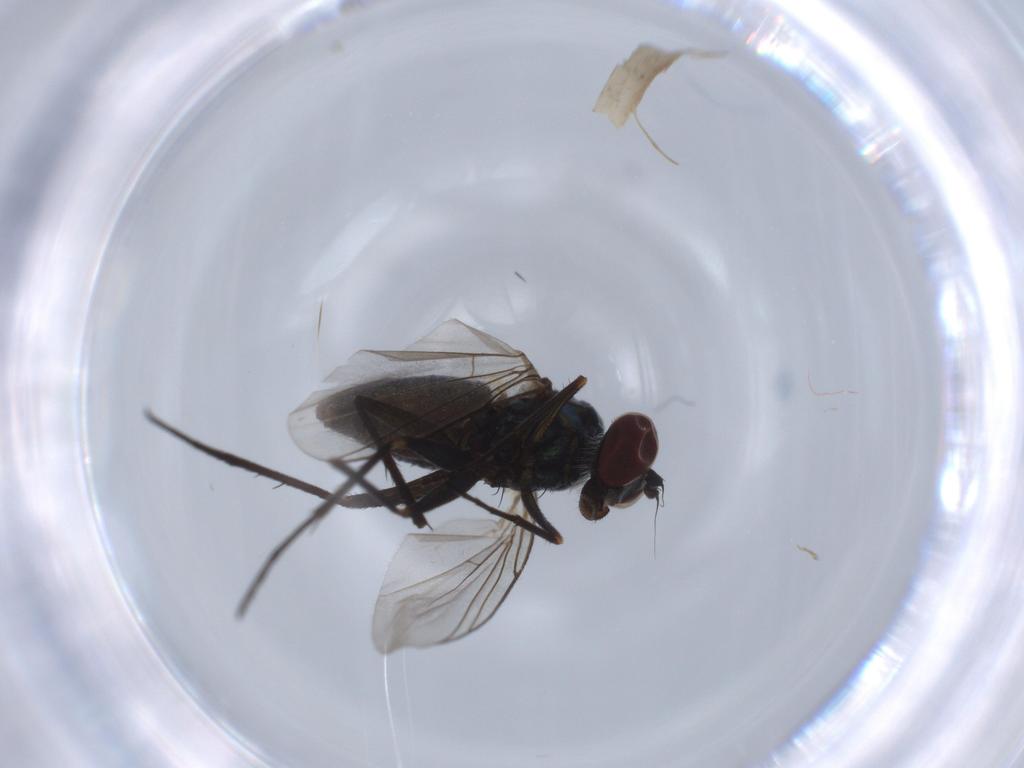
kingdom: Animalia
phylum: Arthropoda
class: Insecta
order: Diptera
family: Dolichopodidae
